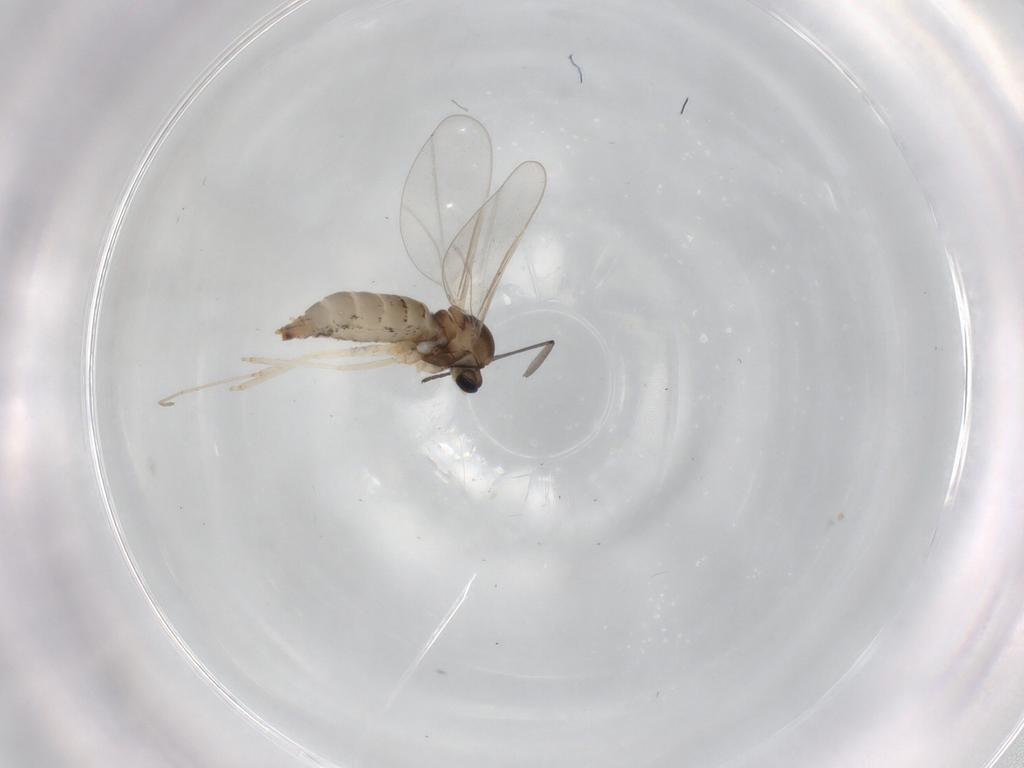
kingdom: Animalia
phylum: Arthropoda
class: Insecta
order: Diptera
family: Cecidomyiidae
